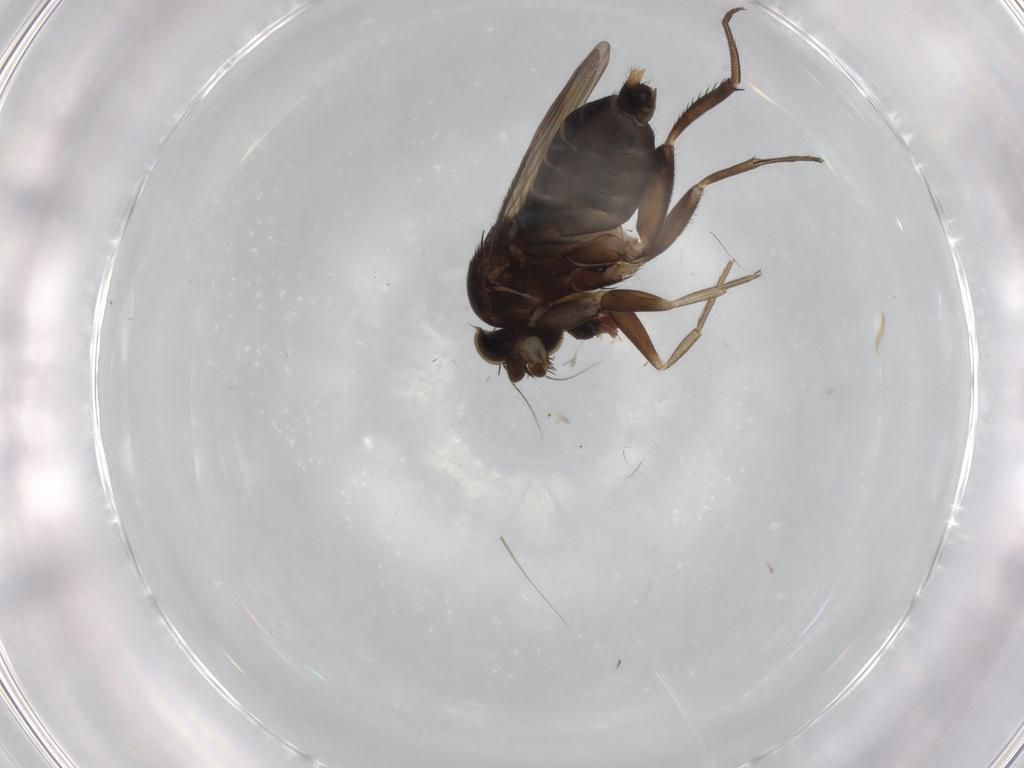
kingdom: Animalia
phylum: Arthropoda
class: Insecta
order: Diptera
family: Phoridae
